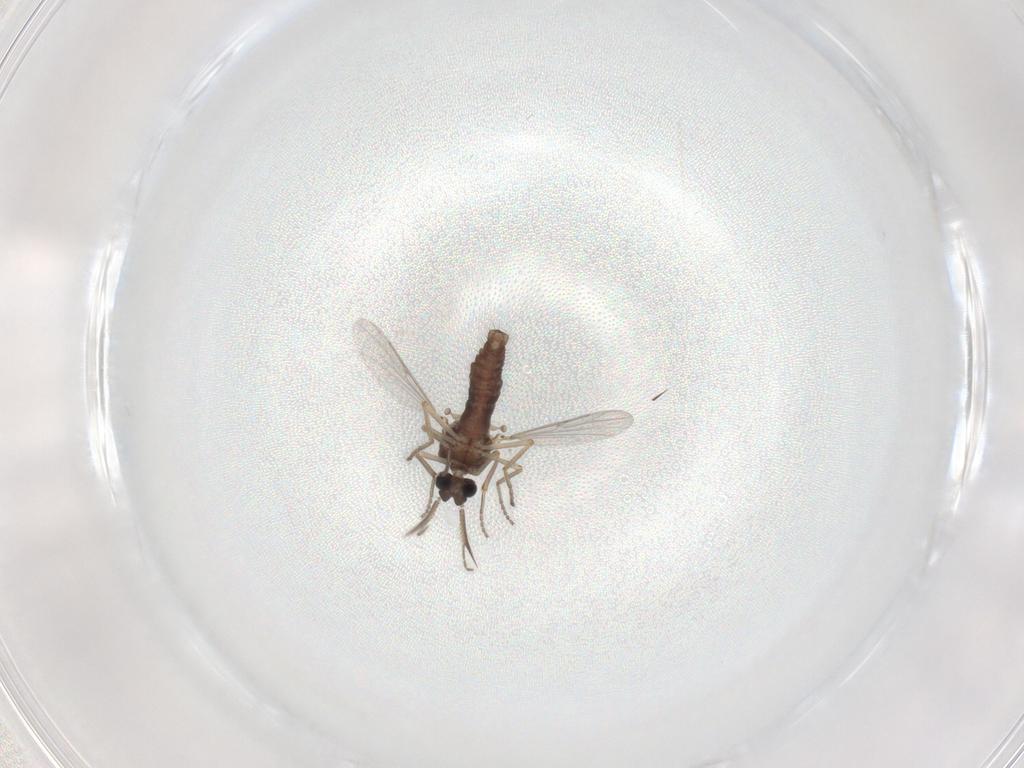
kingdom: Animalia
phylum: Arthropoda
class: Insecta
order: Diptera
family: Ceratopogonidae
